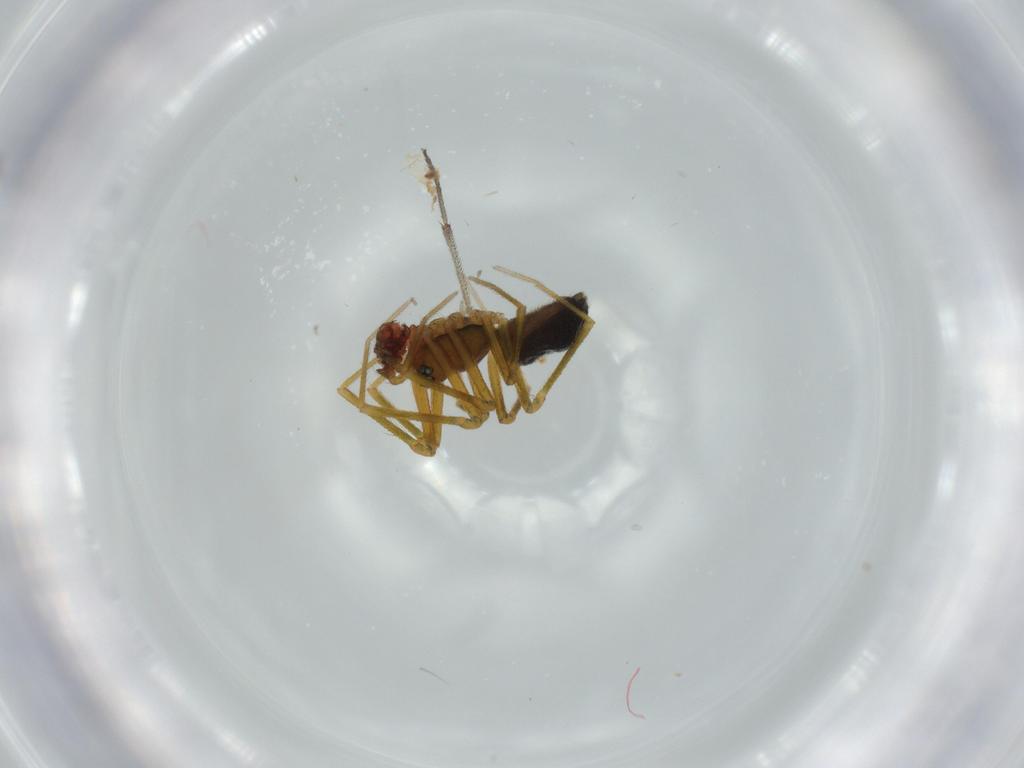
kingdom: Animalia
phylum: Arthropoda
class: Arachnida
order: Araneae
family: Linyphiidae
